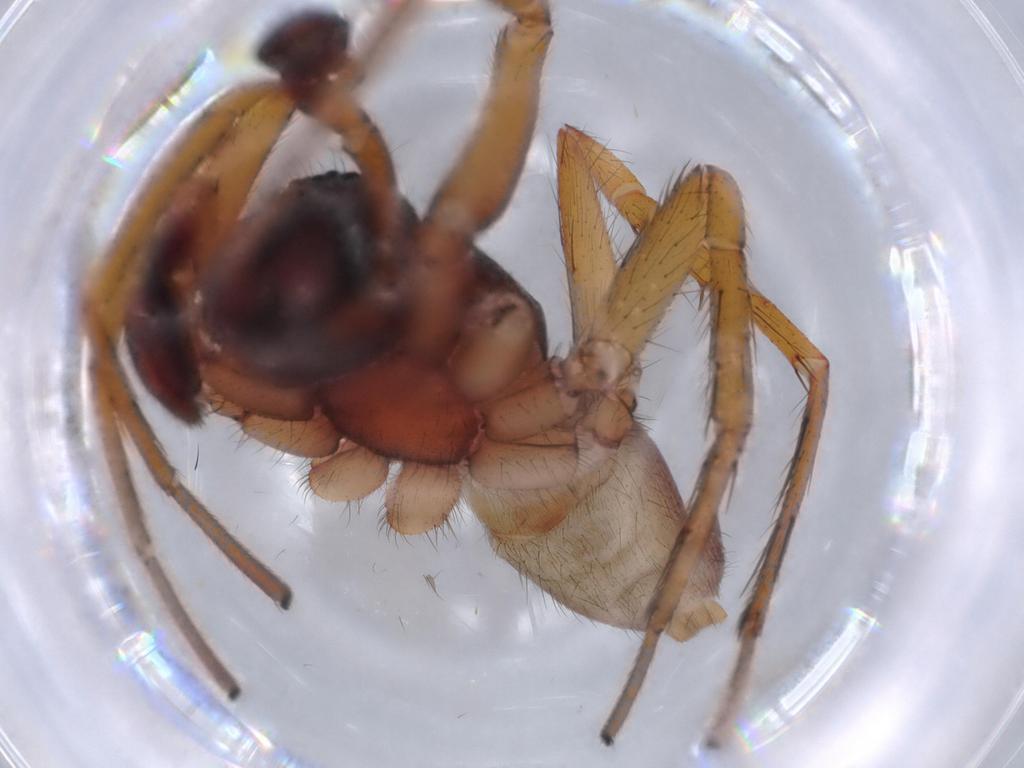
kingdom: Animalia
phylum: Arthropoda
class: Arachnida
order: Araneae
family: Corinnidae
